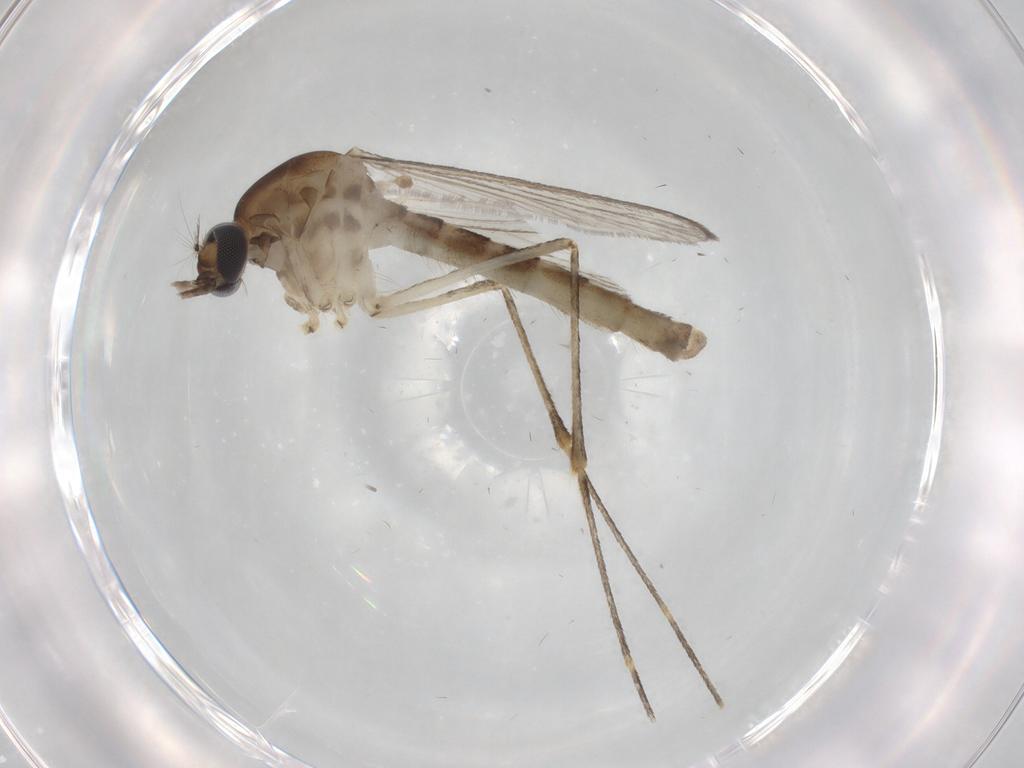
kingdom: Animalia
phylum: Arthropoda
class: Insecta
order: Diptera
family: Culicidae
